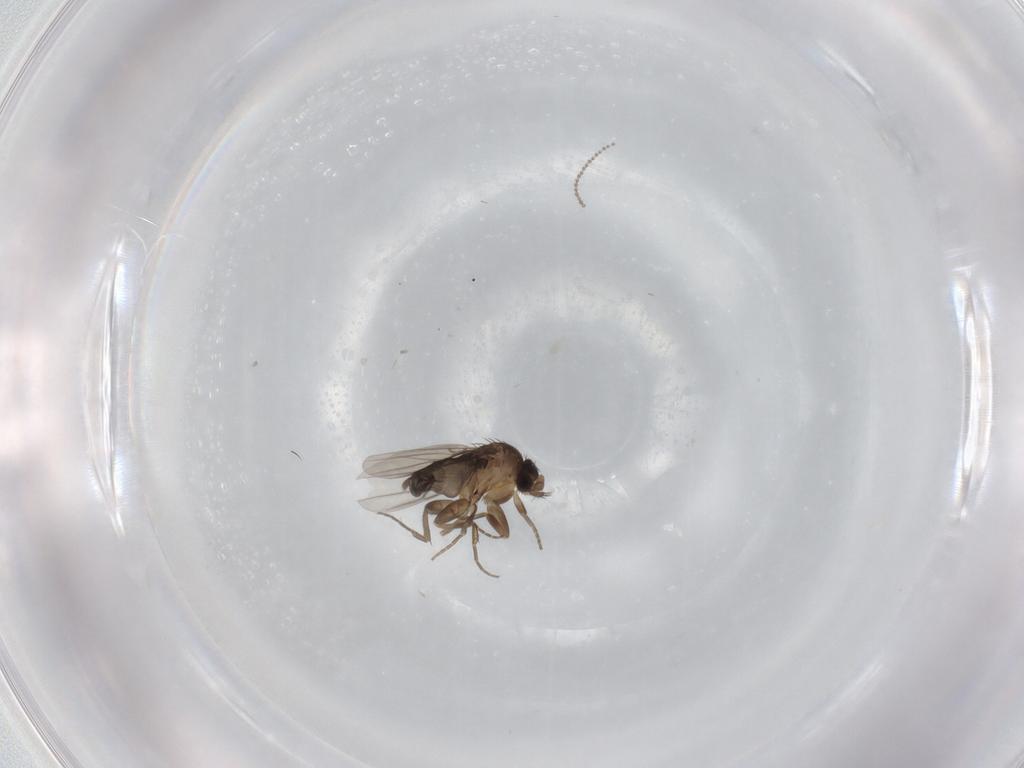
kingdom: Animalia
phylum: Arthropoda
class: Insecta
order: Diptera
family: Phoridae
